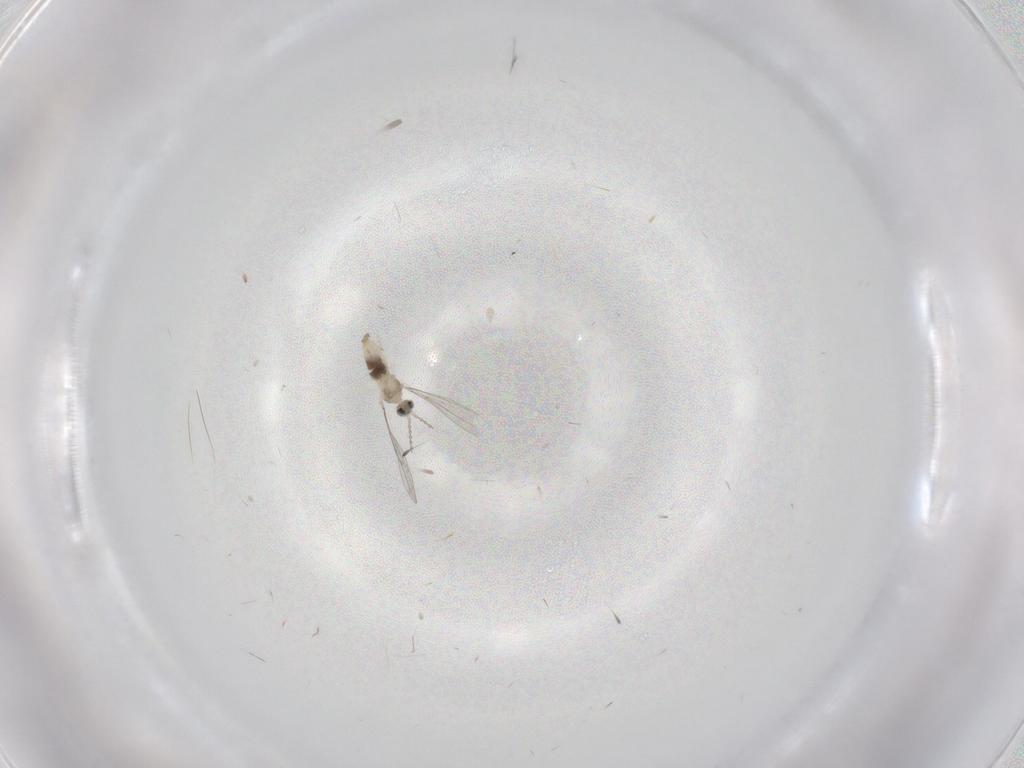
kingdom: Animalia
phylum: Arthropoda
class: Insecta
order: Diptera
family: Cecidomyiidae
